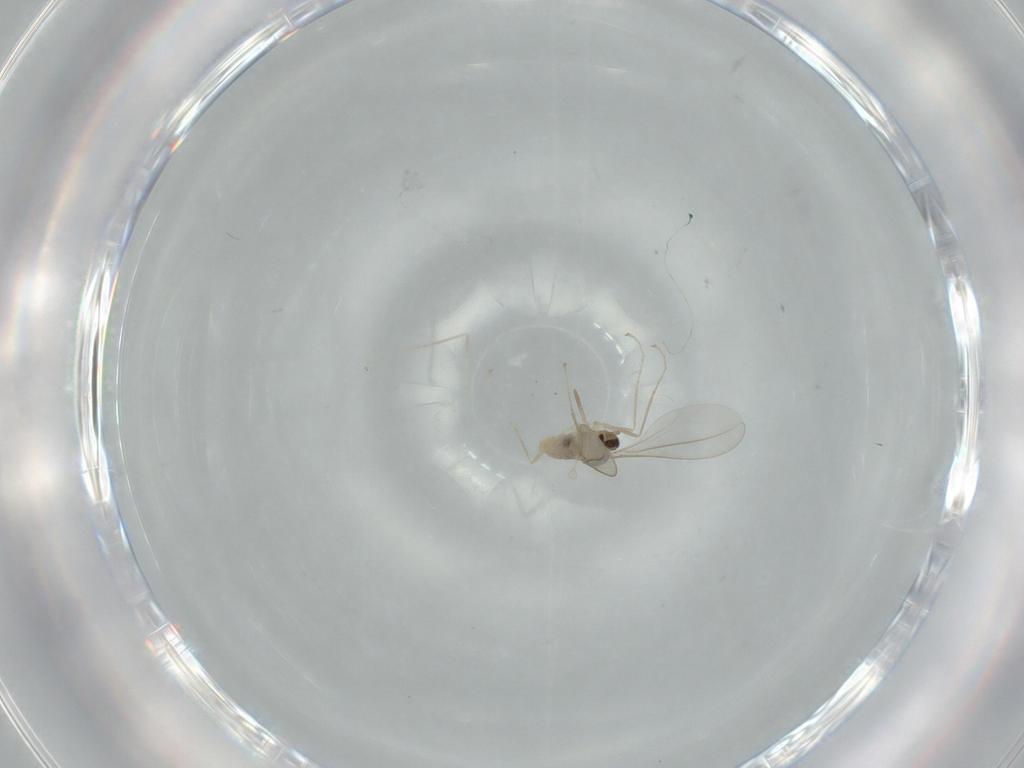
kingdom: Animalia
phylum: Arthropoda
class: Insecta
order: Diptera
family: Cecidomyiidae
